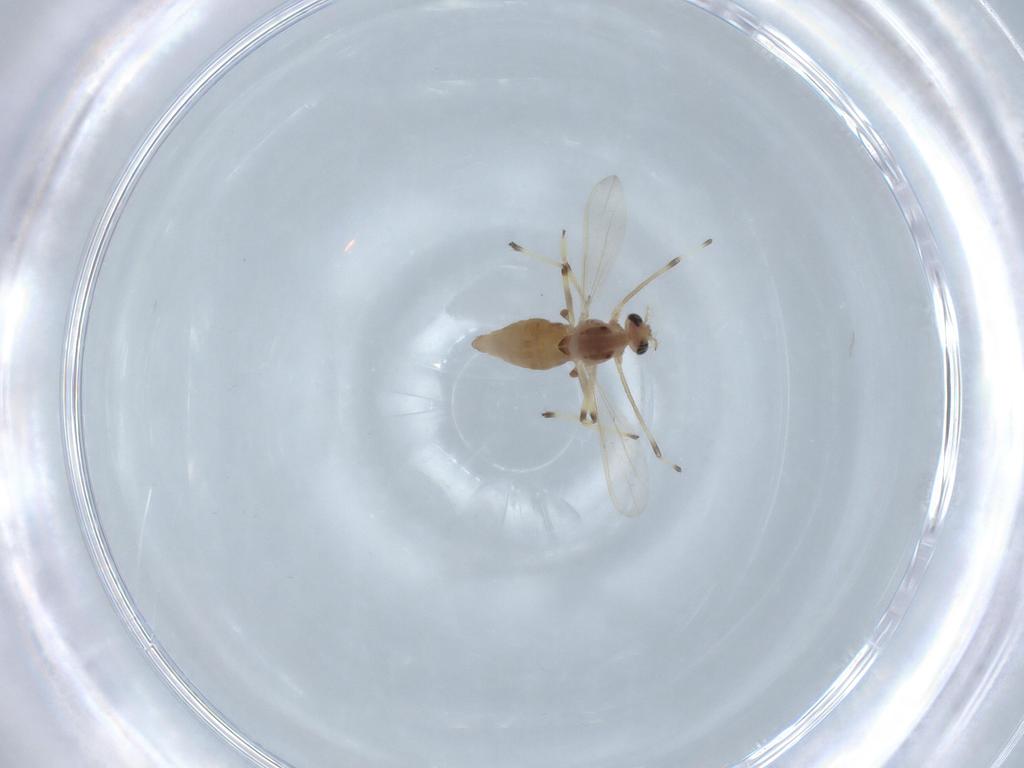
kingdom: Animalia
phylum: Arthropoda
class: Insecta
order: Diptera
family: Chironomidae
